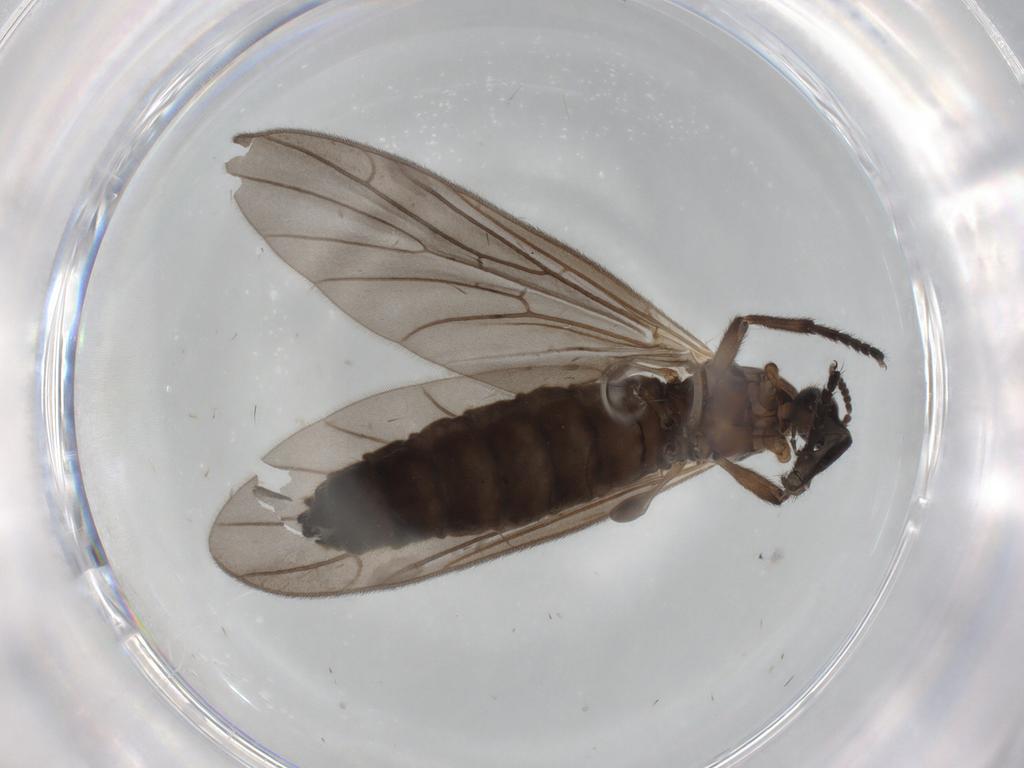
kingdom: Animalia
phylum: Arthropoda
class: Insecta
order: Diptera
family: Bibionidae
